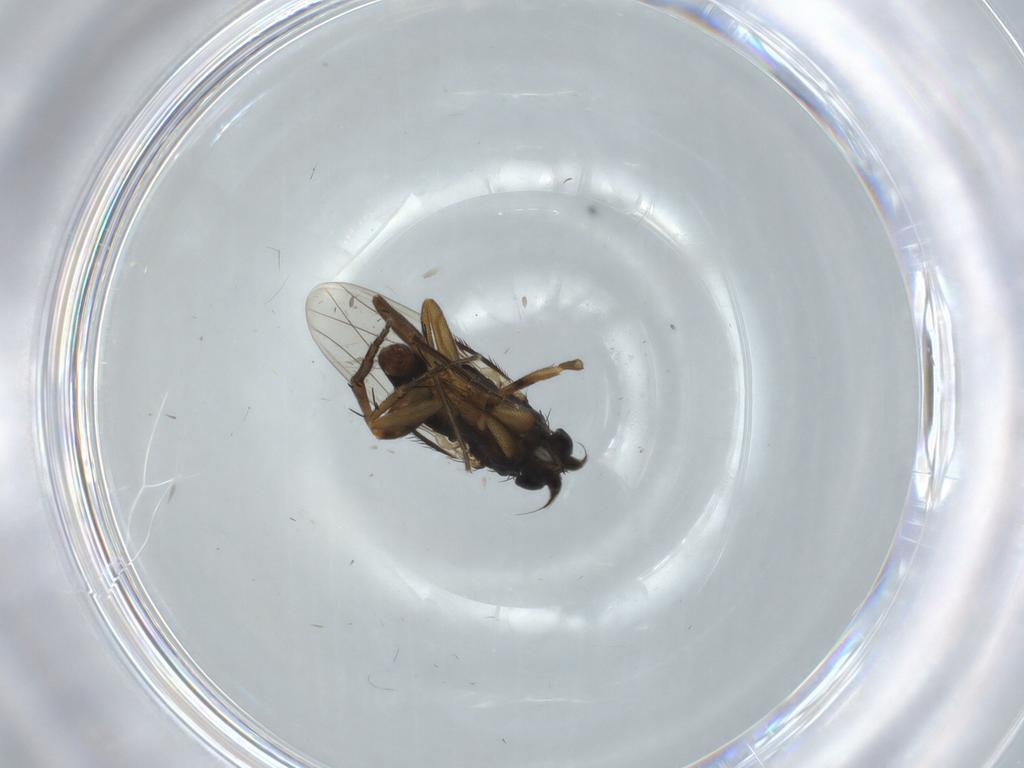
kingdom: Animalia
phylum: Arthropoda
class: Insecta
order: Diptera
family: Phoridae
